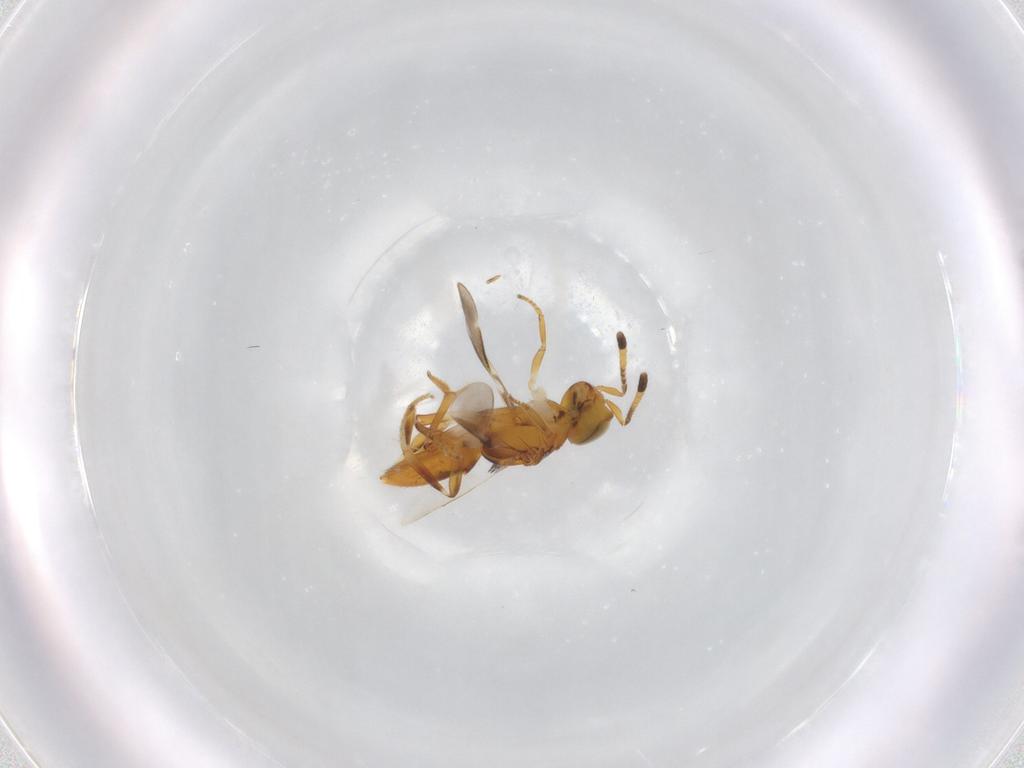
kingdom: Animalia
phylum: Arthropoda
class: Insecta
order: Hymenoptera
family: Encyrtidae
